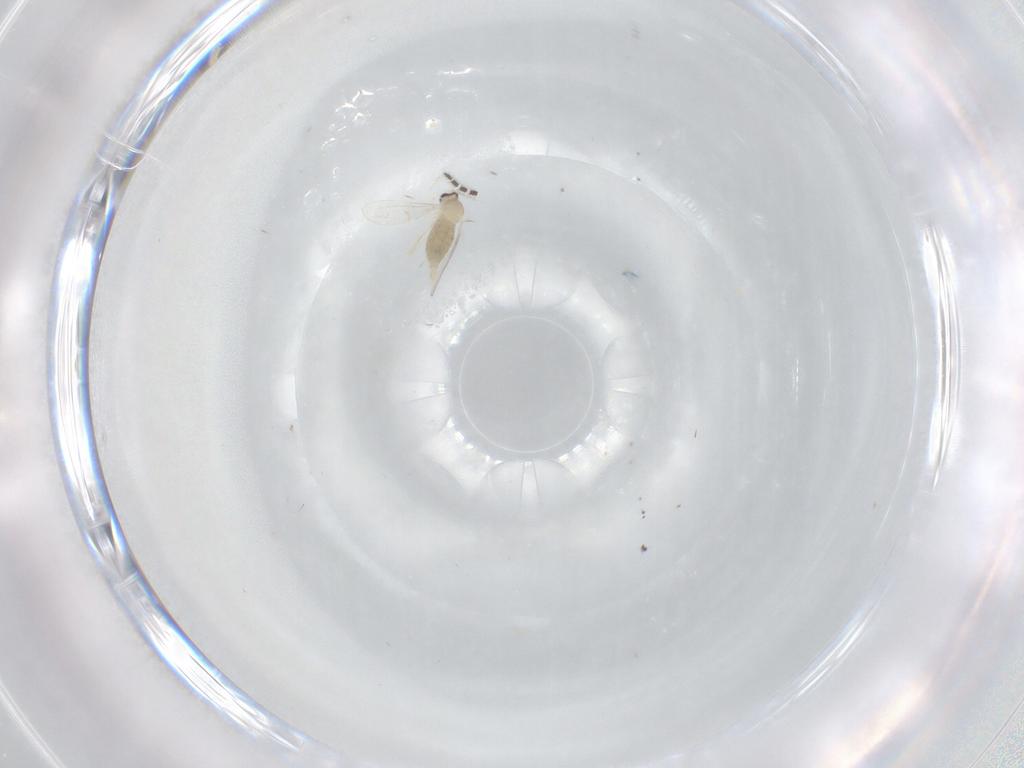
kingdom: Animalia
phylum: Arthropoda
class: Insecta
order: Diptera
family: Cecidomyiidae
